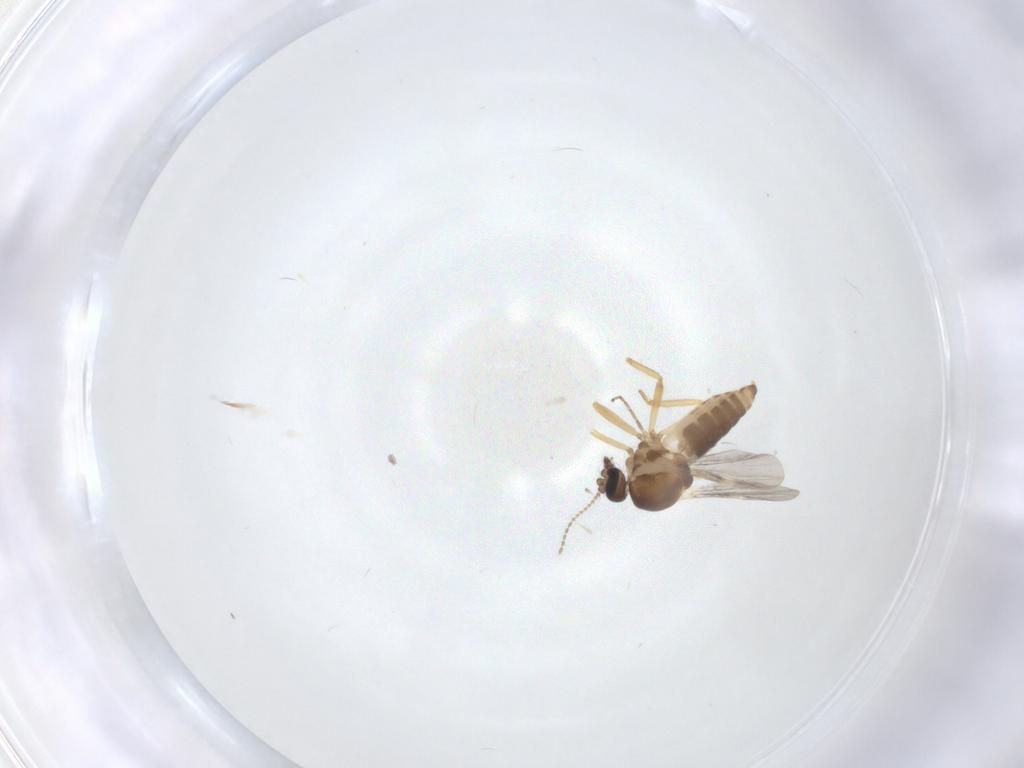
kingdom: Animalia
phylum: Arthropoda
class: Insecta
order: Diptera
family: Ceratopogonidae
